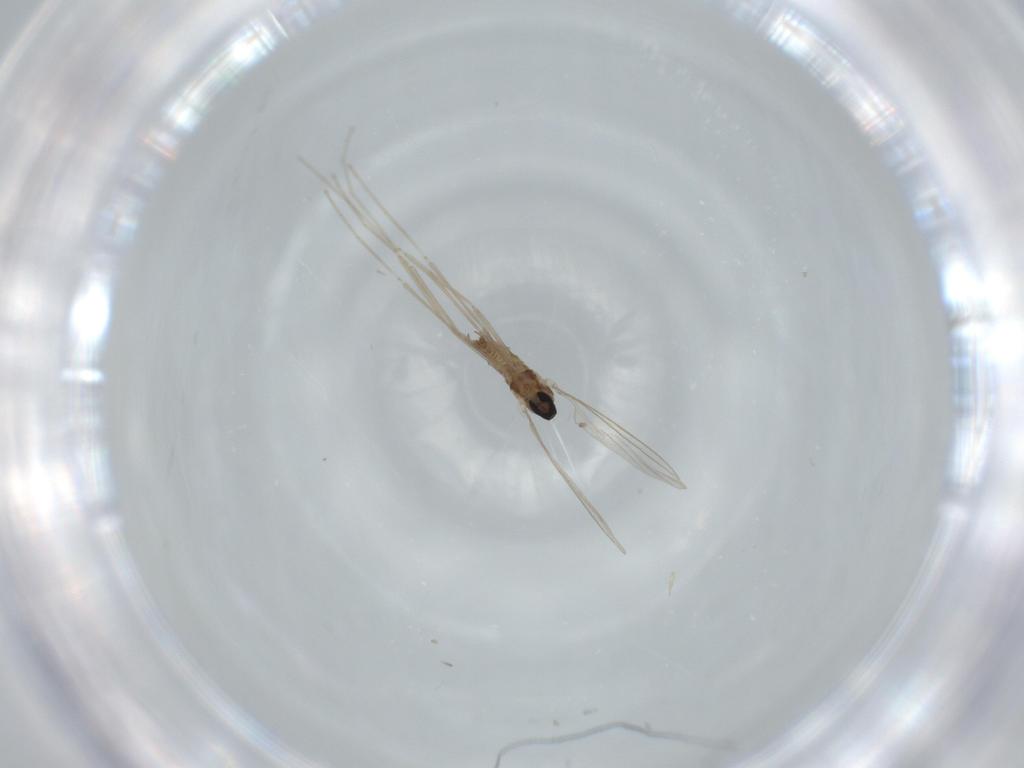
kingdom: Animalia
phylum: Arthropoda
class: Insecta
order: Diptera
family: Cecidomyiidae
